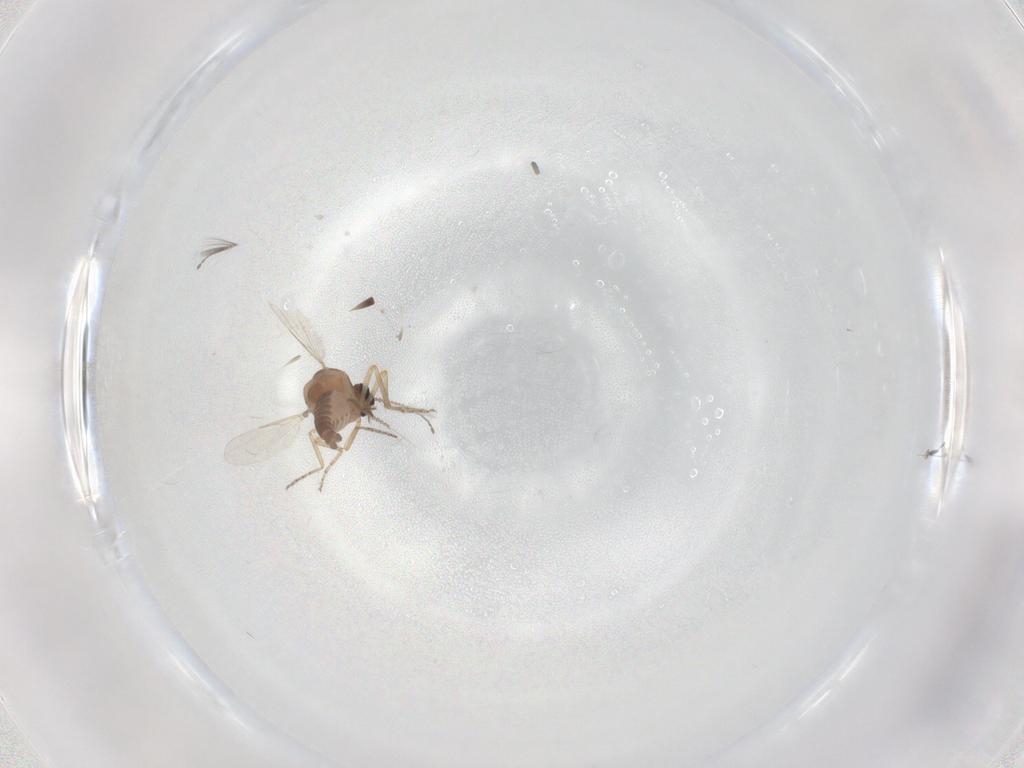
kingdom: Animalia
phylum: Arthropoda
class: Insecta
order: Diptera
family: Ceratopogonidae
